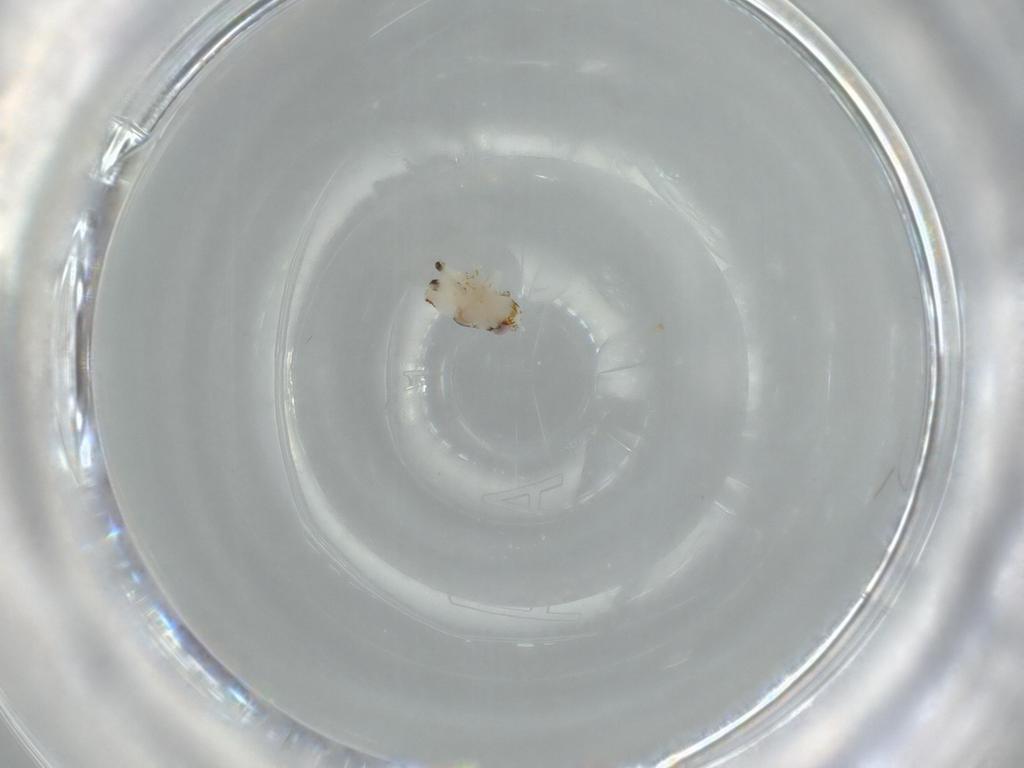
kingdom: Animalia
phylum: Arthropoda
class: Insecta
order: Hemiptera
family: Nogodinidae
